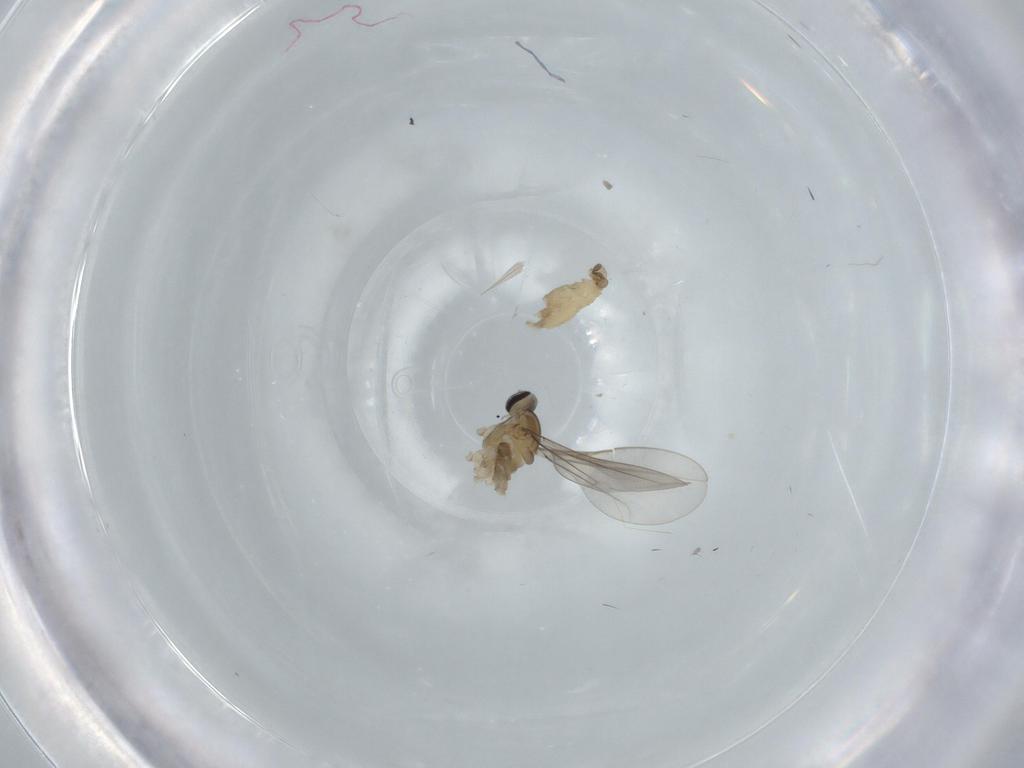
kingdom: Animalia
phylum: Arthropoda
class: Insecta
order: Diptera
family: Cecidomyiidae
